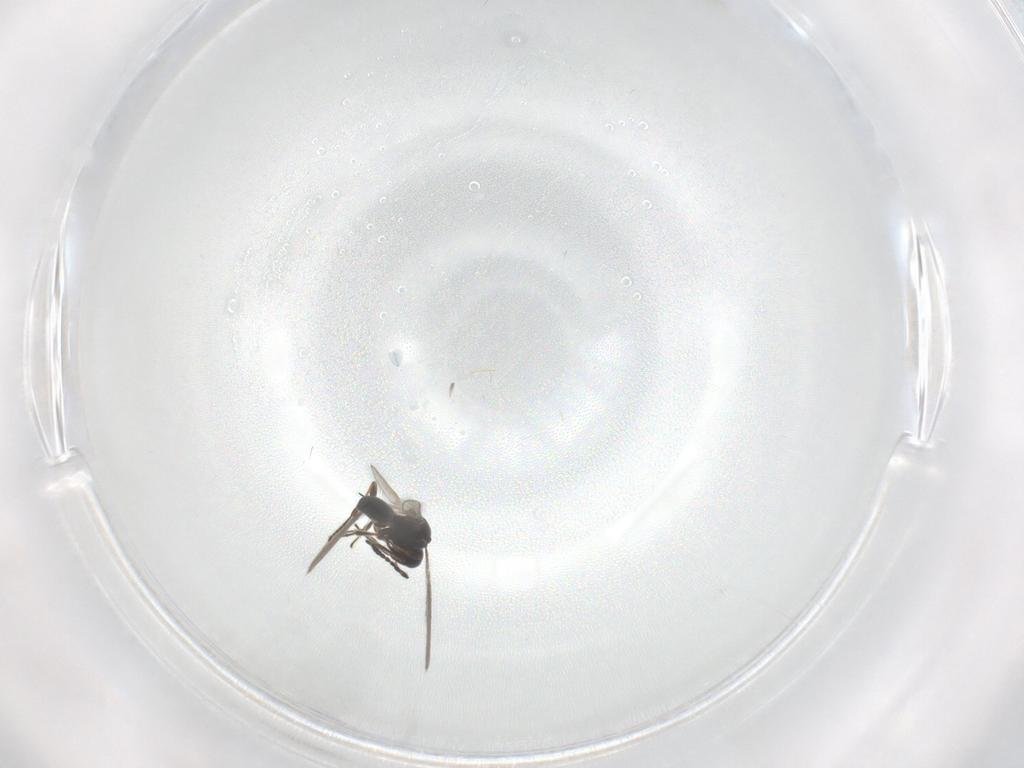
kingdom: Animalia
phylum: Arthropoda
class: Insecta
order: Hymenoptera
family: Platygastridae
